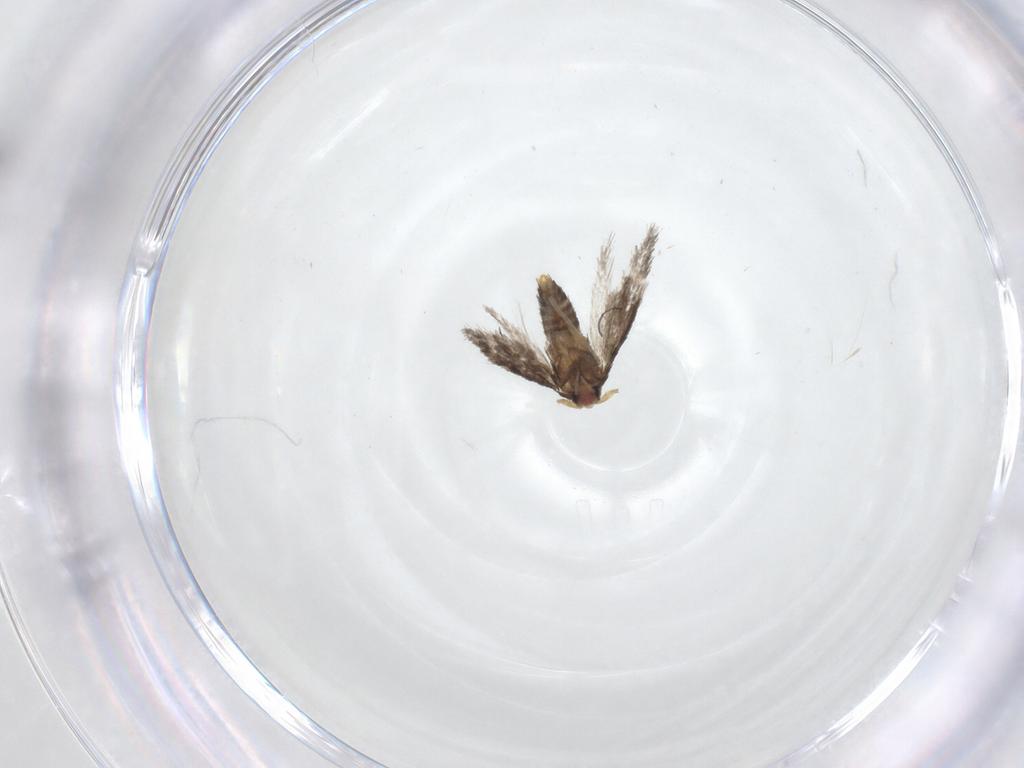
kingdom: Animalia
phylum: Arthropoda
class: Insecta
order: Lepidoptera
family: Nepticulidae
